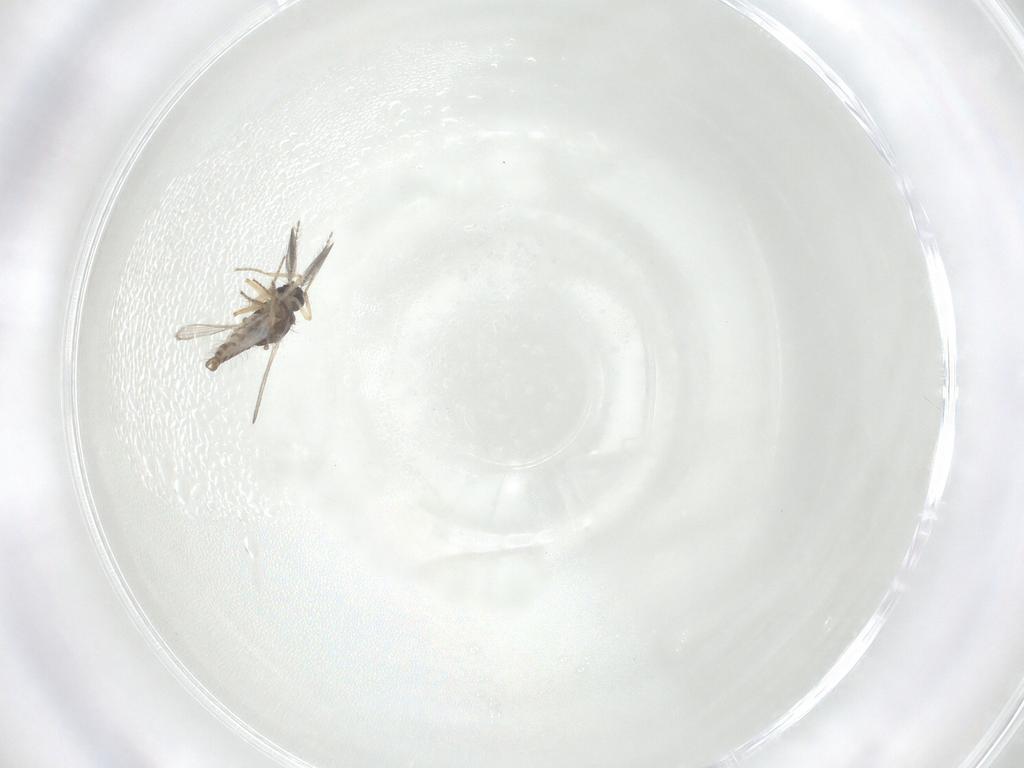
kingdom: Animalia
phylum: Arthropoda
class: Insecta
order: Diptera
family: Ceratopogonidae
